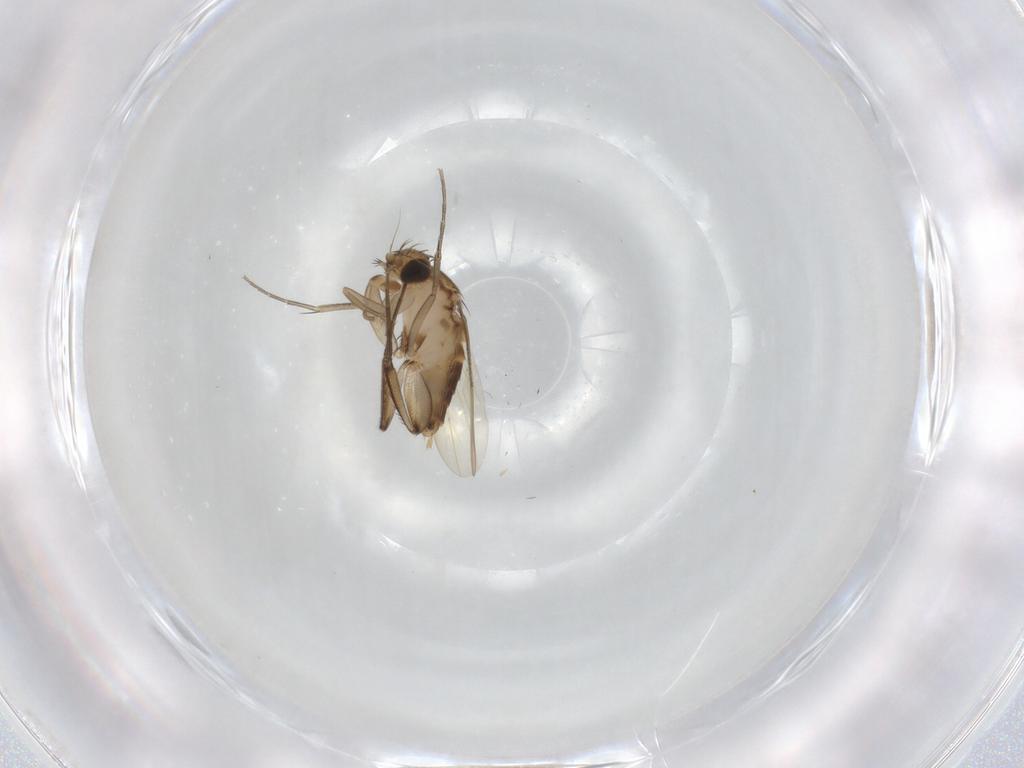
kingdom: Animalia
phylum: Arthropoda
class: Insecta
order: Diptera
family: Phoridae
